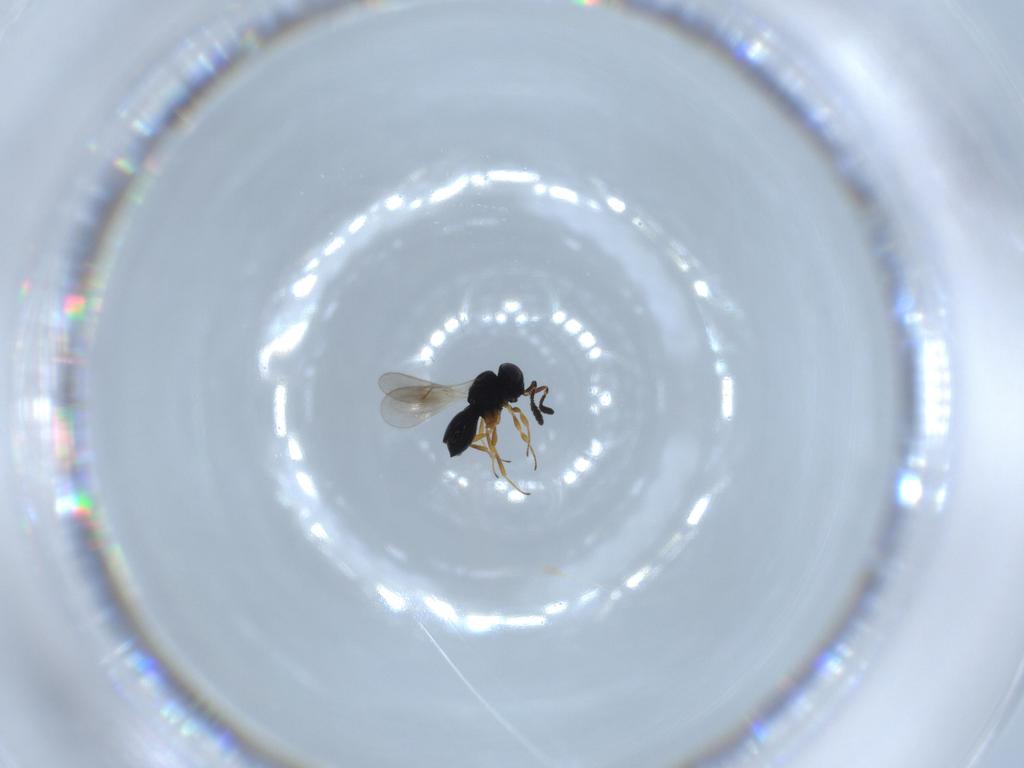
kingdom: Animalia
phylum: Arthropoda
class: Insecta
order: Hymenoptera
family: Scelionidae
